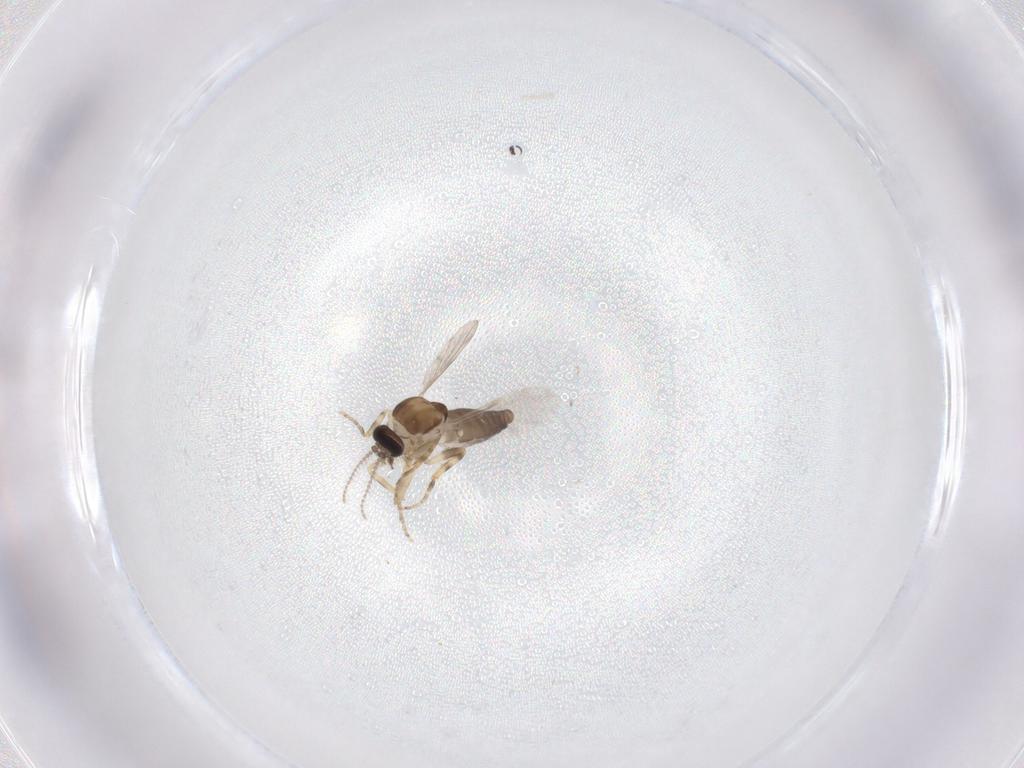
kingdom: Animalia
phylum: Arthropoda
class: Insecta
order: Diptera
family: Ceratopogonidae
